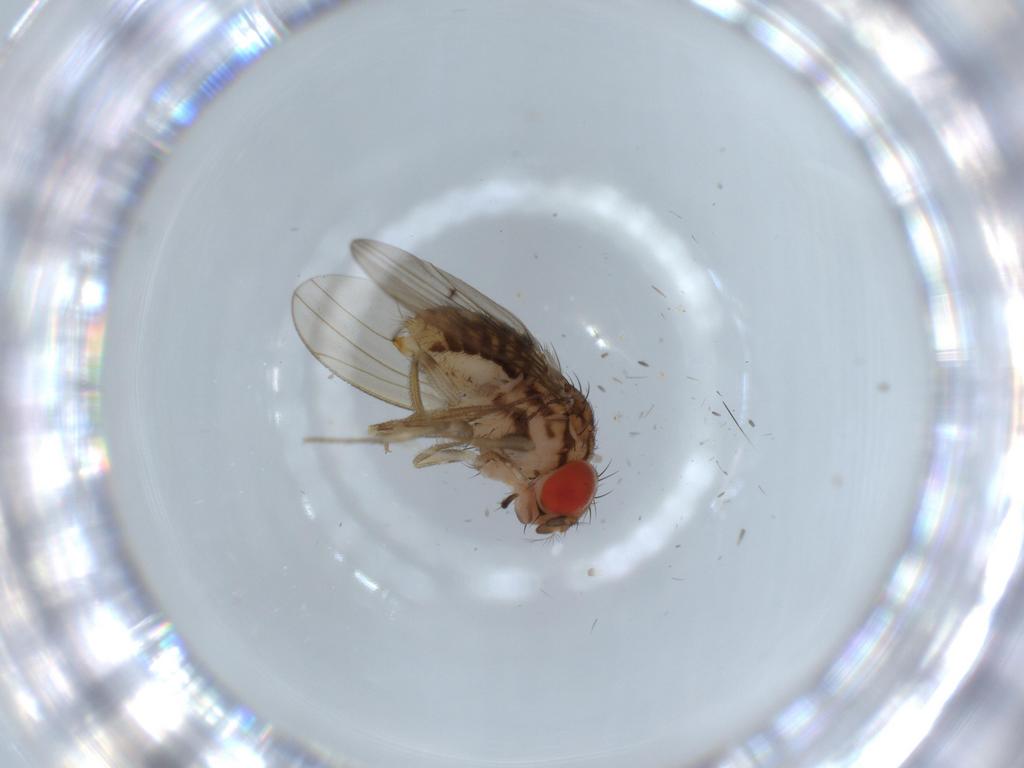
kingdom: Animalia
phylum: Arthropoda
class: Insecta
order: Diptera
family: Drosophilidae
